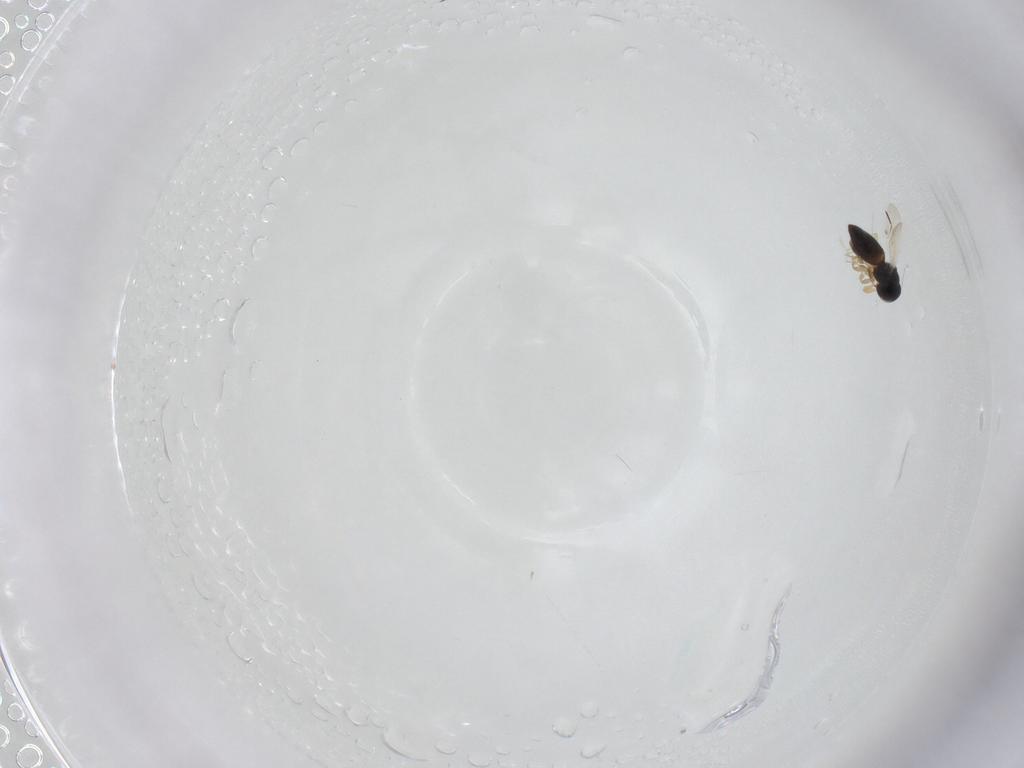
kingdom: Animalia
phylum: Arthropoda
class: Insecta
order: Hymenoptera
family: Platygastridae
